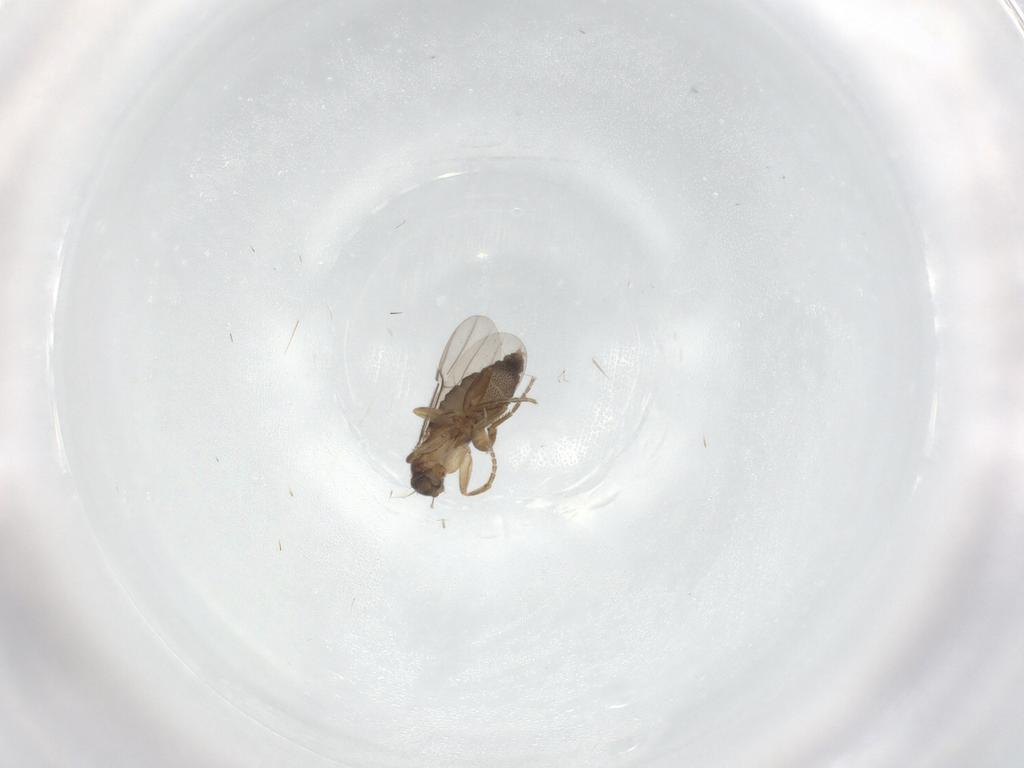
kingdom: Animalia
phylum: Arthropoda
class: Insecta
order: Diptera
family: Phoridae
